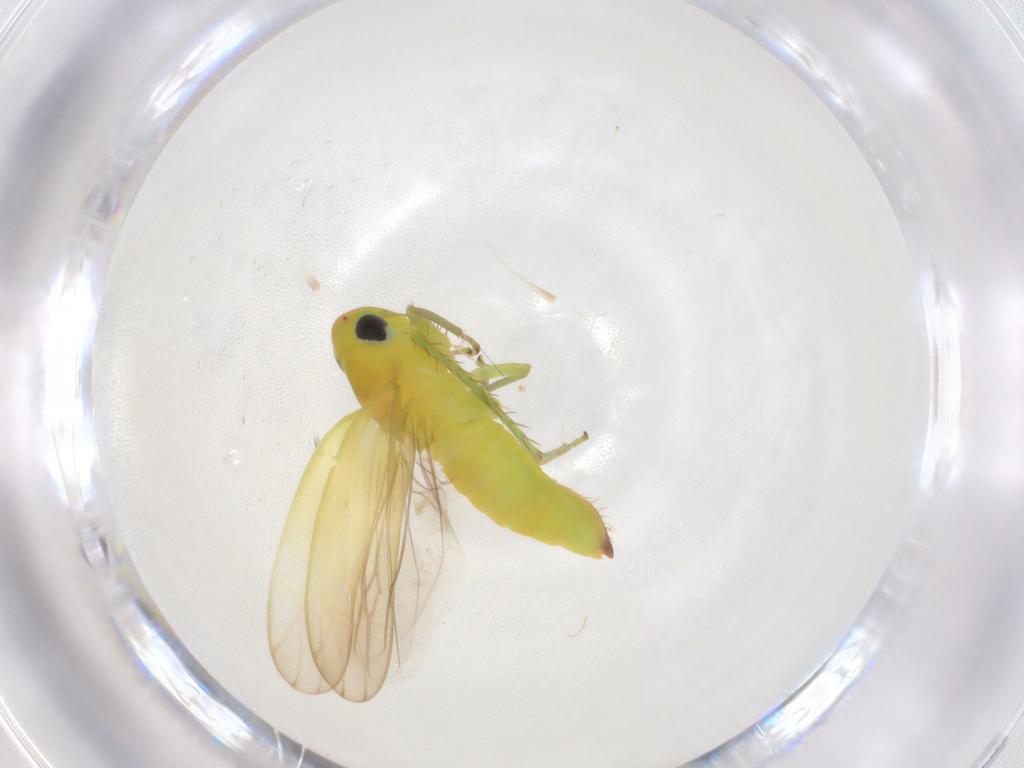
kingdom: Animalia
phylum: Arthropoda
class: Insecta
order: Hemiptera
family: Cicadellidae
